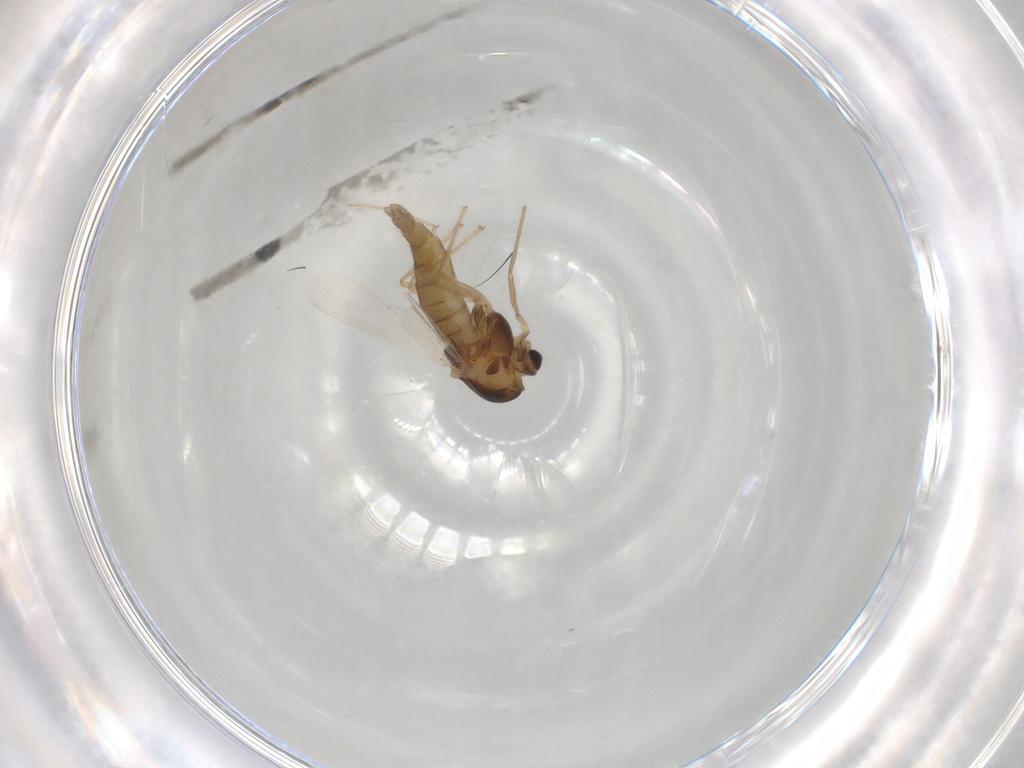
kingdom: Animalia
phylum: Arthropoda
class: Insecta
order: Diptera
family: Chironomidae
